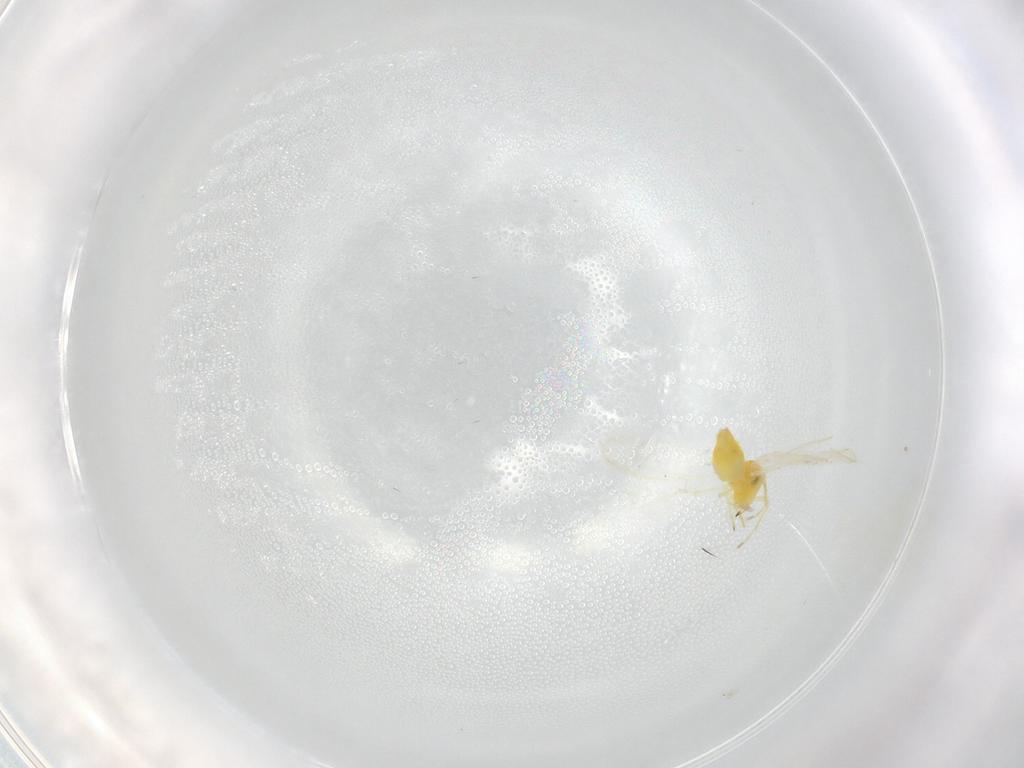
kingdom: Animalia
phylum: Arthropoda
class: Insecta
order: Hemiptera
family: Aleyrodidae
